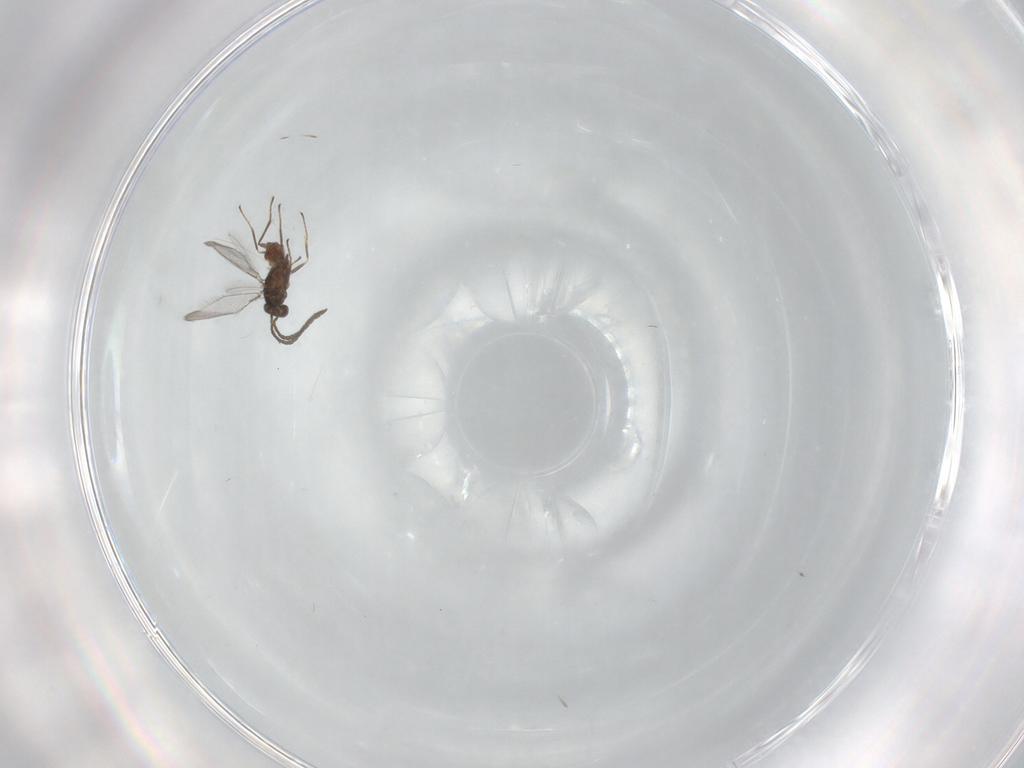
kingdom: Animalia
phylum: Arthropoda
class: Insecta
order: Hymenoptera
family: Mymaridae
